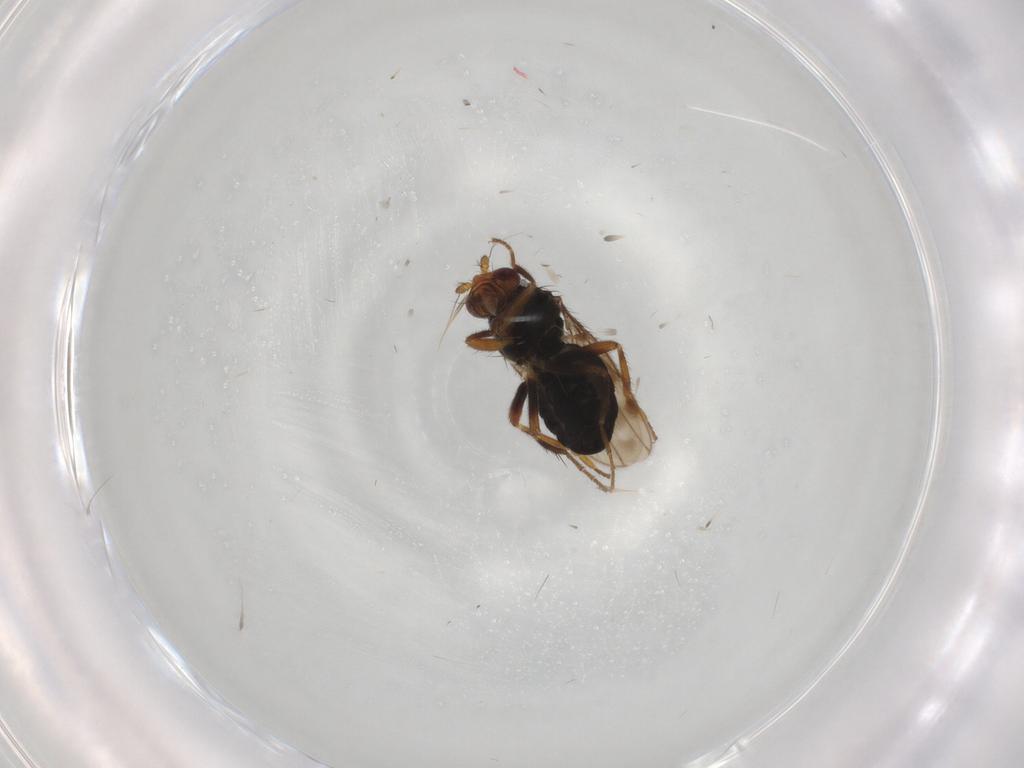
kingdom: Animalia
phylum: Arthropoda
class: Insecta
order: Diptera
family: Sphaeroceridae
